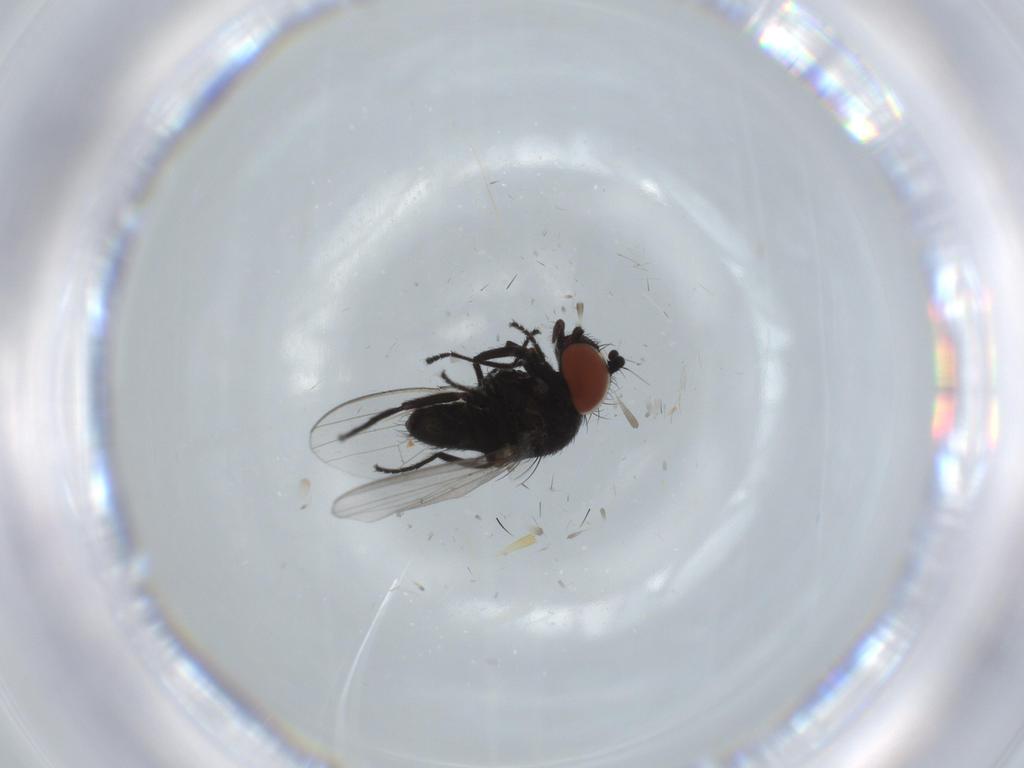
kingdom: Animalia
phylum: Arthropoda
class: Insecta
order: Diptera
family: Sciaridae
